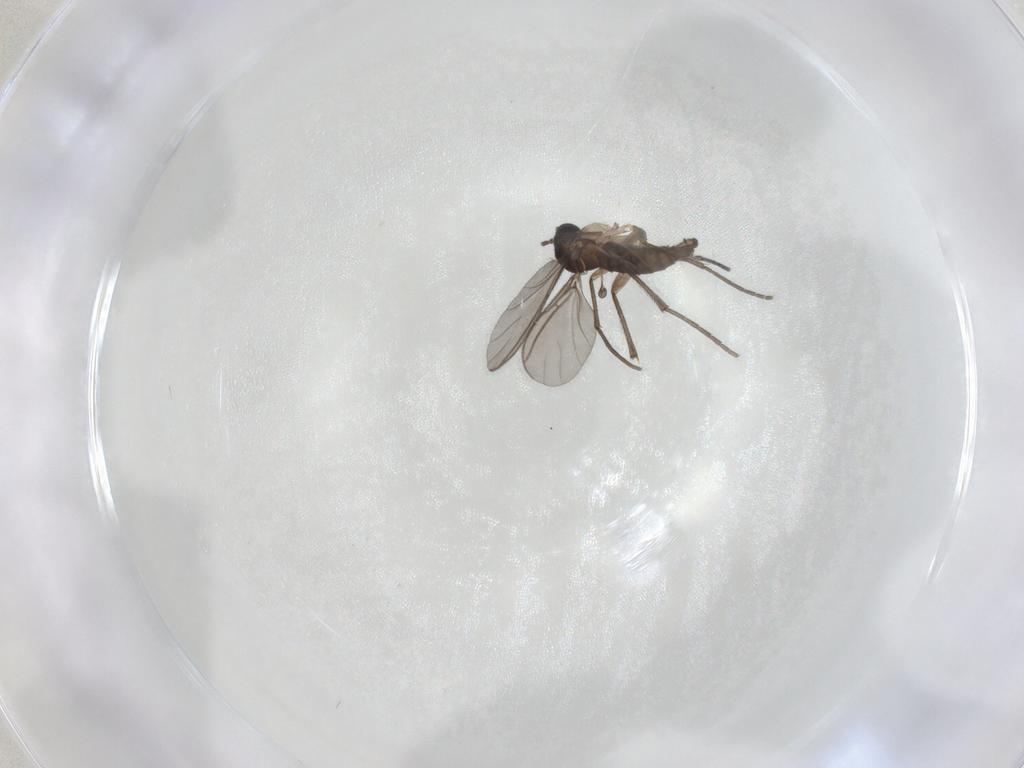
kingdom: Animalia
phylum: Arthropoda
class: Insecta
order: Diptera
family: Sciaridae
